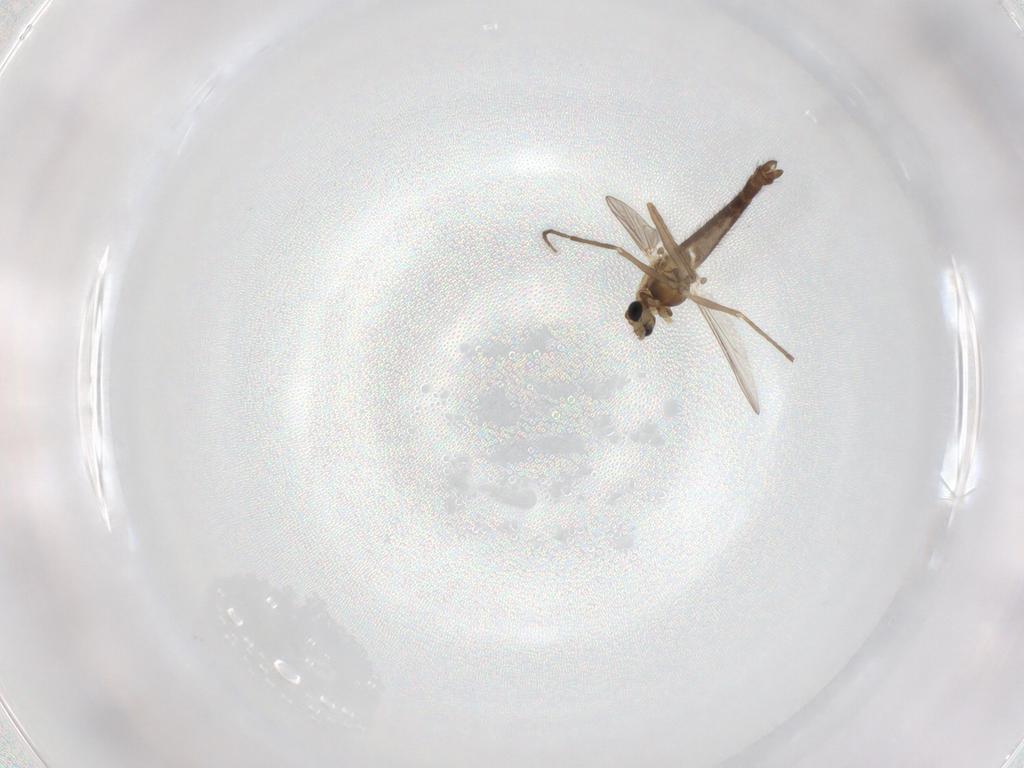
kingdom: Animalia
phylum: Arthropoda
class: Insecta
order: Diptera
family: Chironomidae
